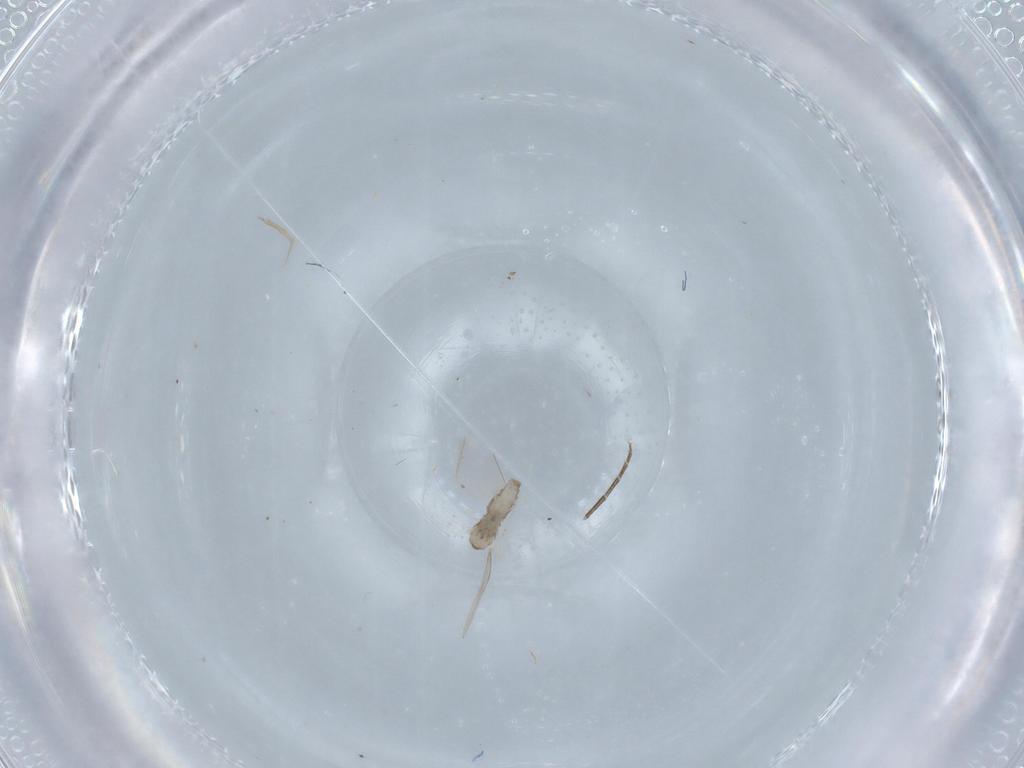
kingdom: Animalia
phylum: Arthropoda
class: Insecta
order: Diptera
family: Cecidomyiidae
